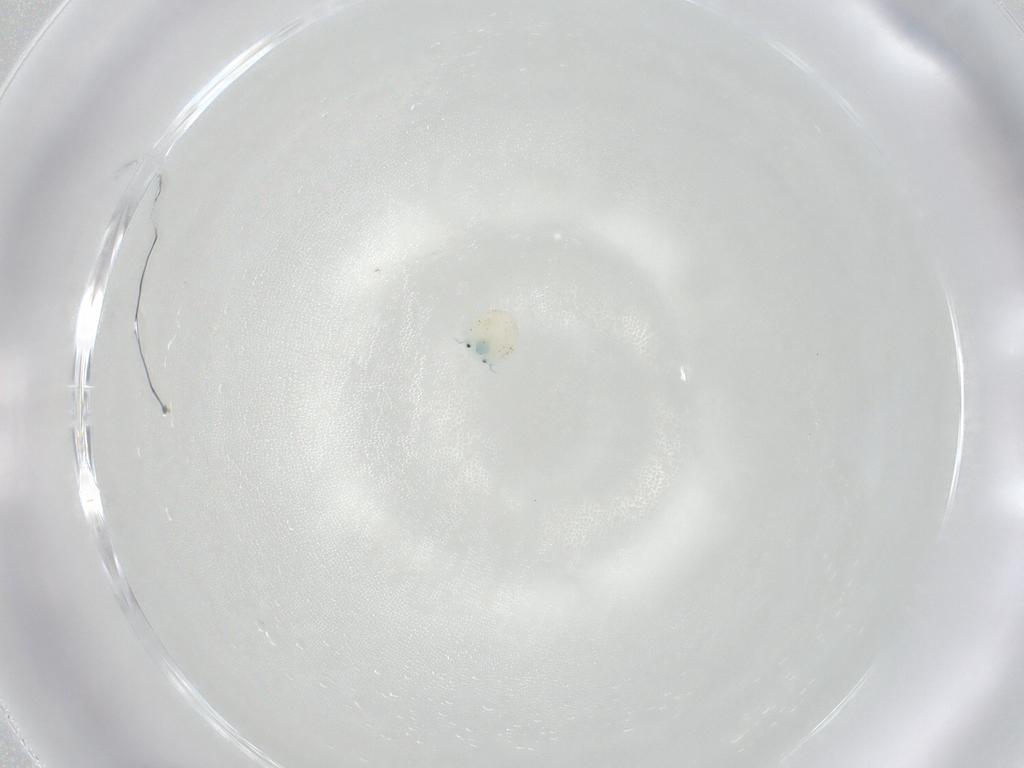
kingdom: Animalia
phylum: Arthropoda
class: Arachnida
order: Trombidiformes
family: Arrenuridae
